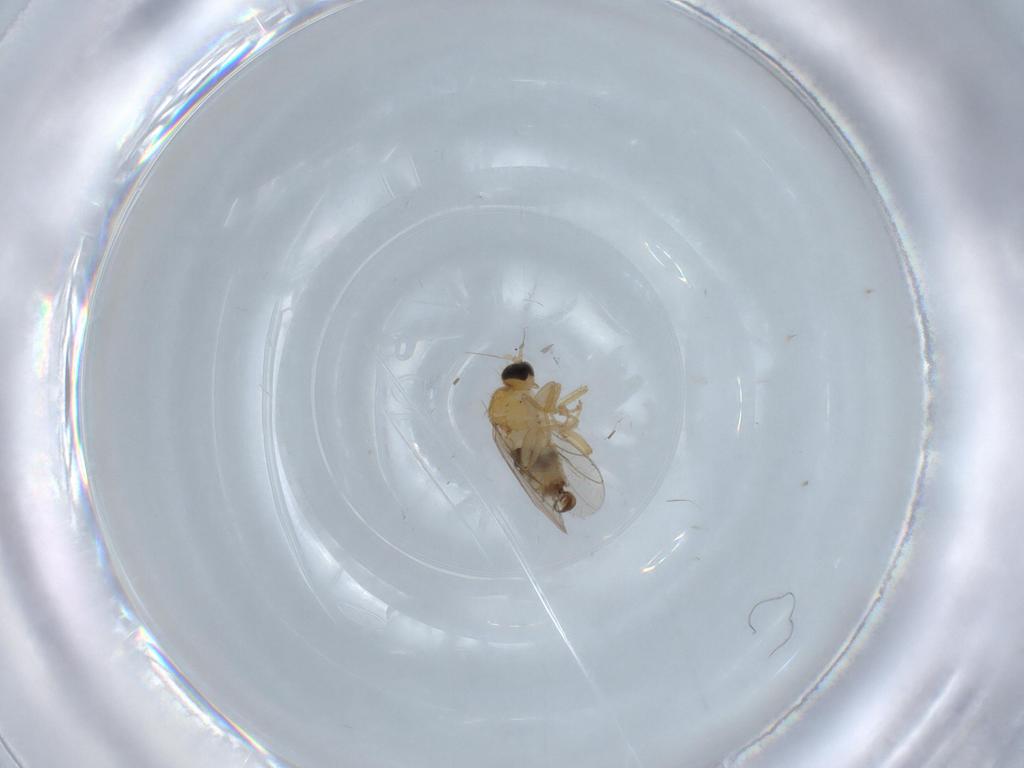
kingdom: Animalia
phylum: Arthropoda
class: Insecta
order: Diptera
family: Hybotidae
